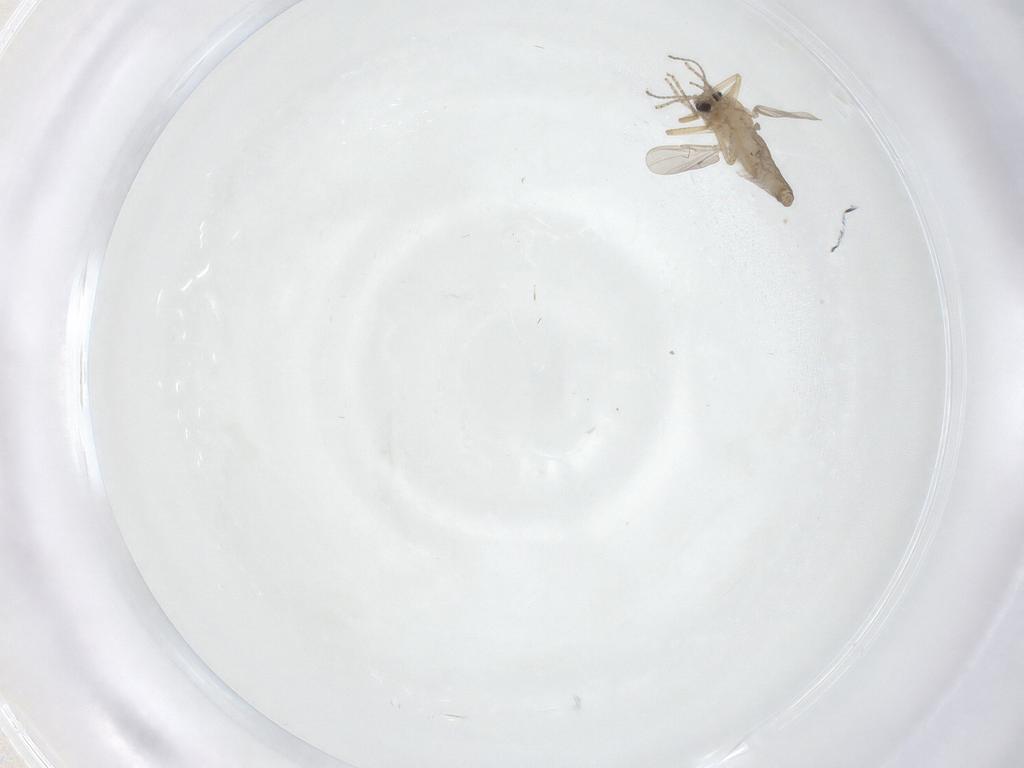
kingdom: Animalia
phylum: Arthropoda
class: Insecta
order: Diptera
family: Ceratopogonidae
